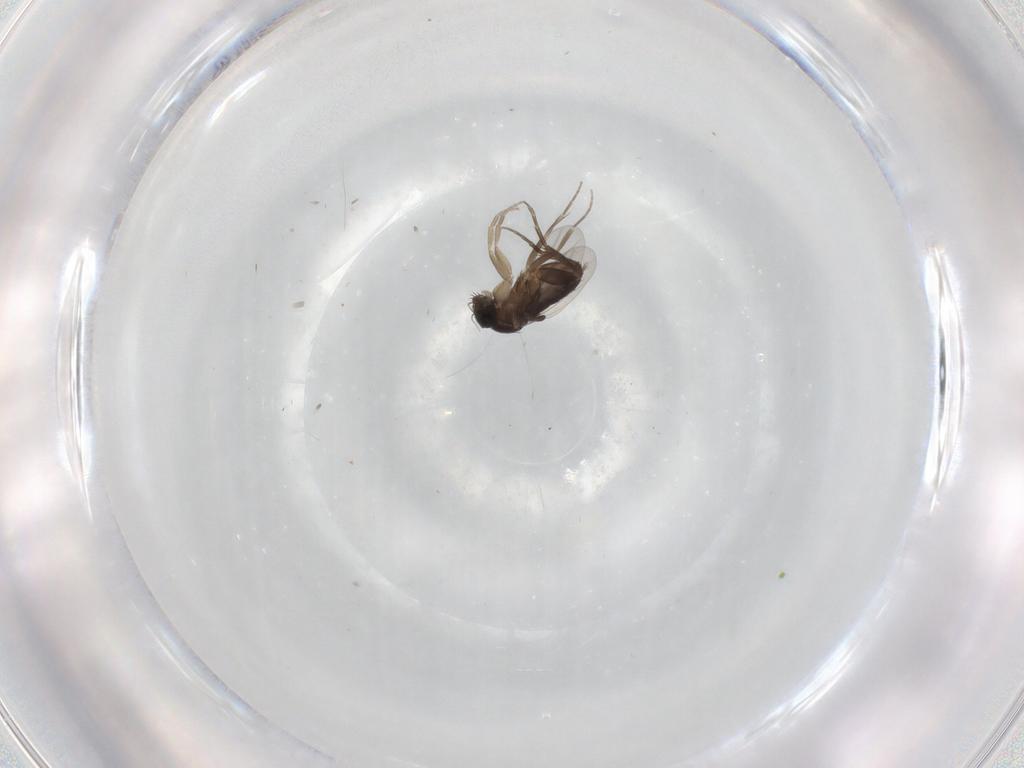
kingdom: Animalia
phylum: Arthropoda
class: Insecta
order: Diptera
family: Phoridae
